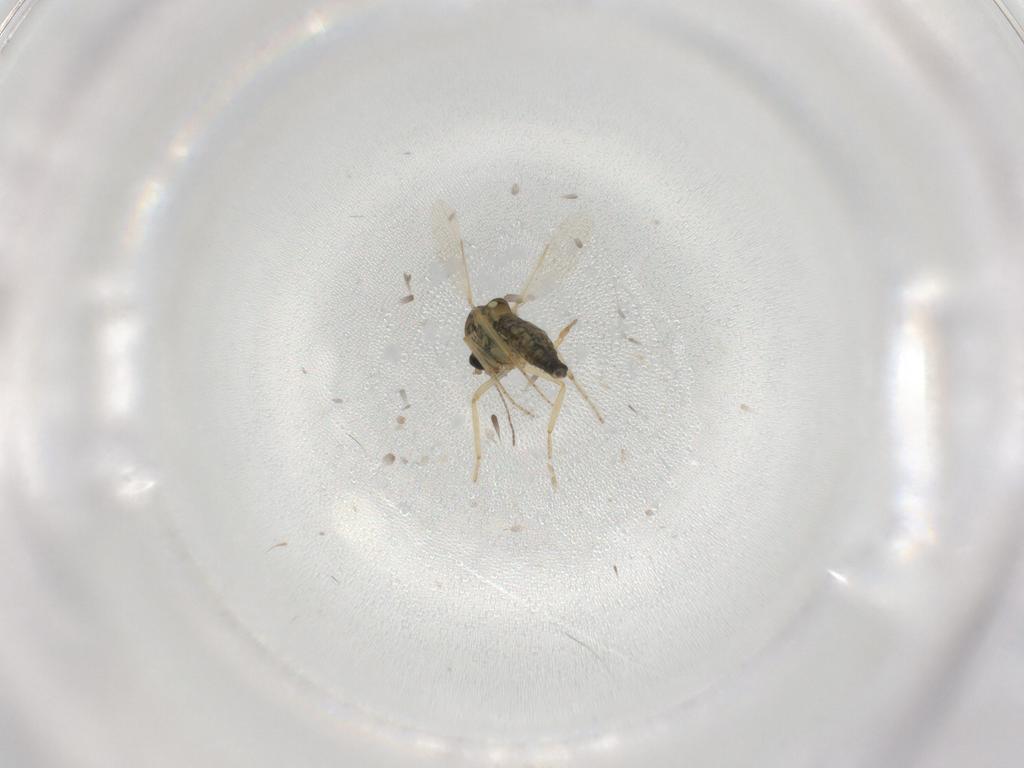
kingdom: Animalia
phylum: Arthropoda
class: Insecta
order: Diptera
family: Ceratopogonidae
